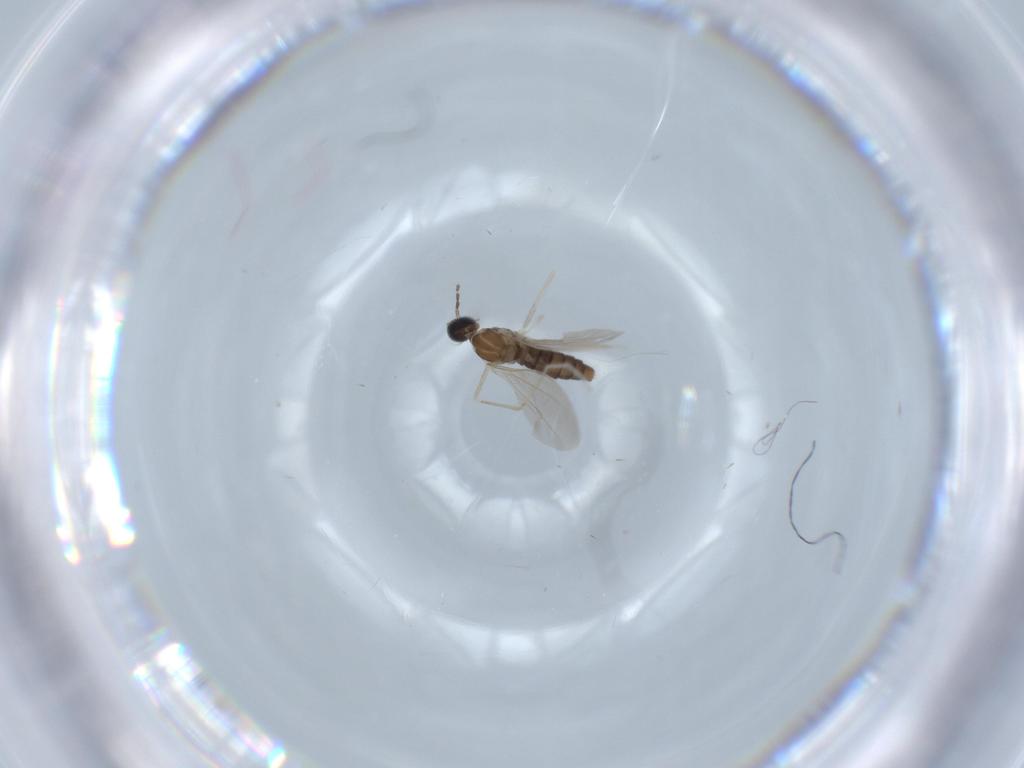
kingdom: Animalia
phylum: Arthropoda
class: Insecta
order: Diptera
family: Cecidomyiidae
